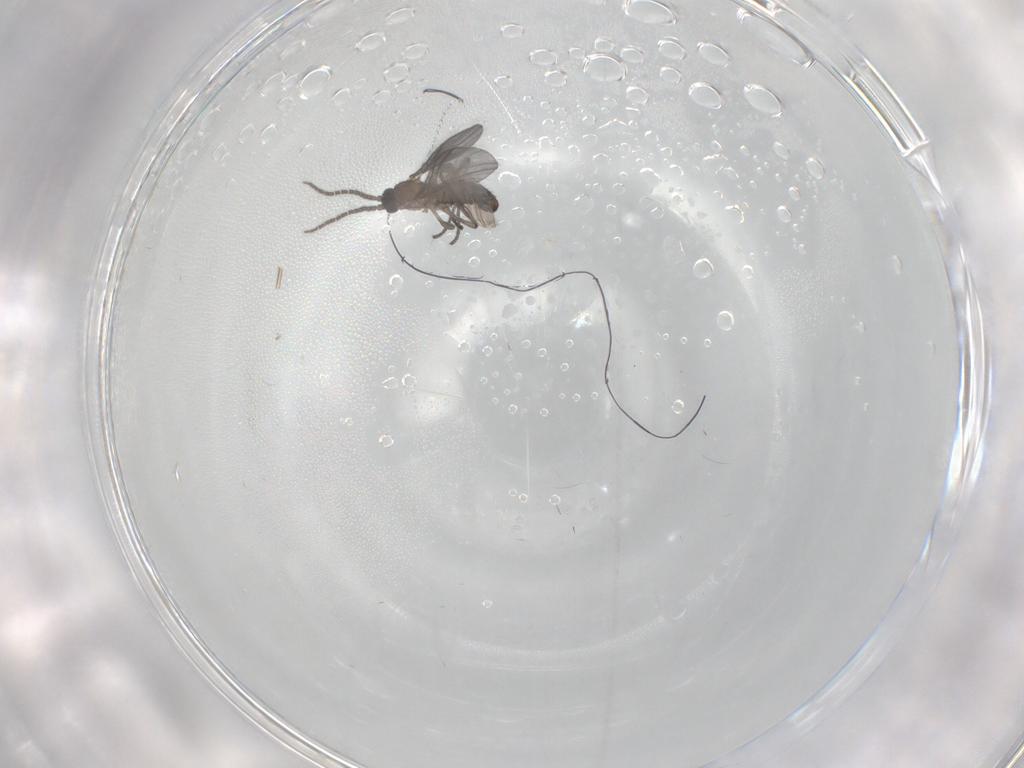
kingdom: Animalia
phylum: Arthropoda
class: Insecta
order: Diptera
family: Chironomidae
